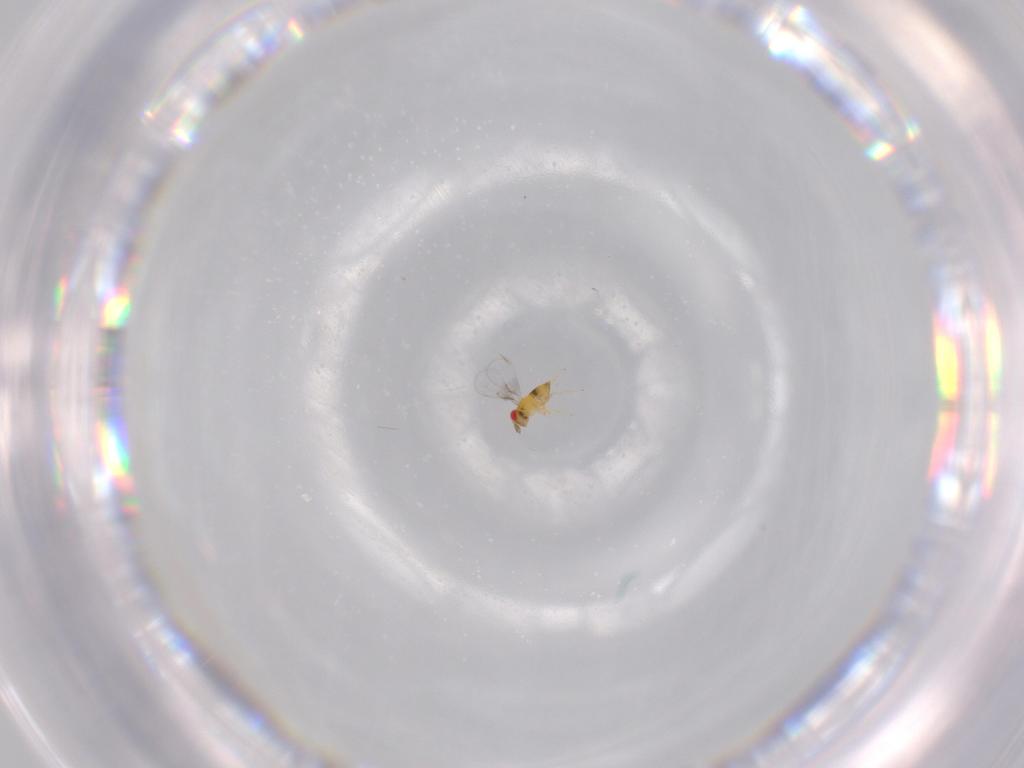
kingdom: Animalia
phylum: Arthropoda
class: Insecta
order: Hymenoptera
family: Trichogrammatidae
